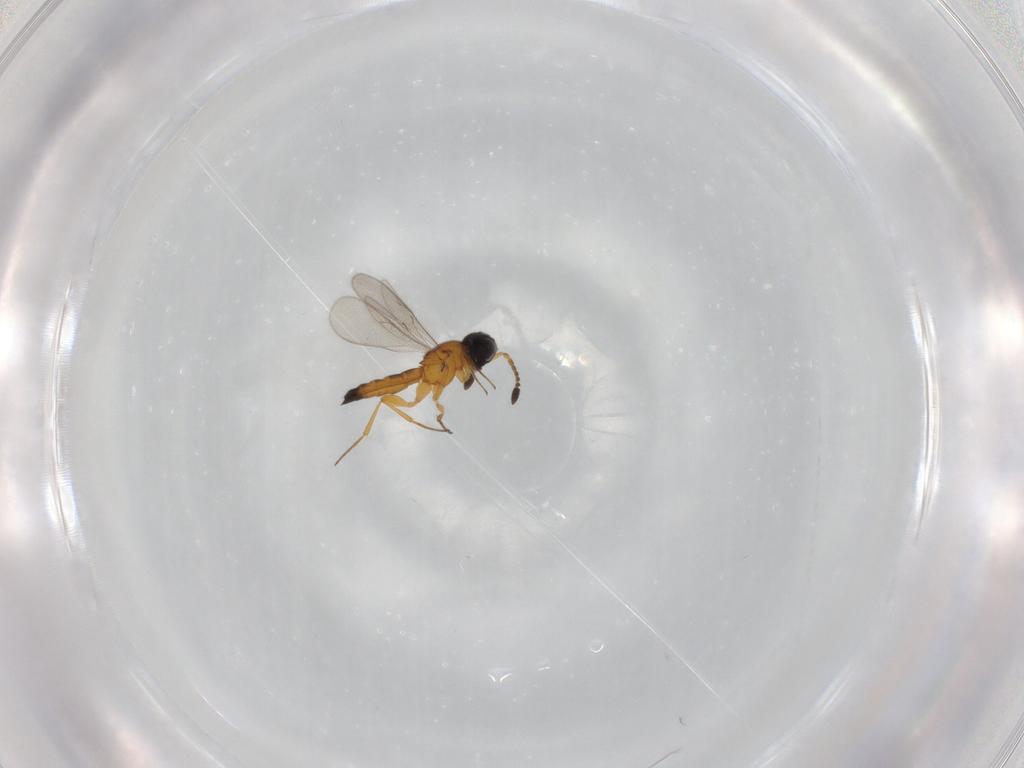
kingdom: Animalia
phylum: Arthropoda
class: Insecta
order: Hymenoptera
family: Scelionidae
